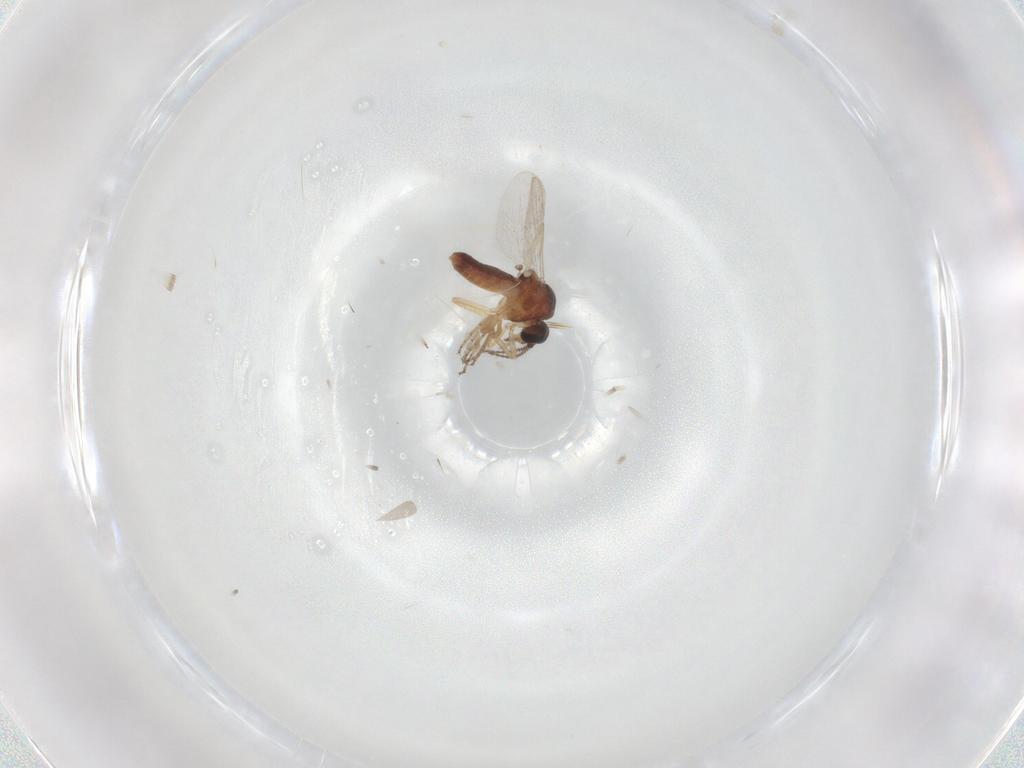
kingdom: Animalia
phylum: Arthropoda
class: Insecta
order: Diptera
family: Ceratopogonidae
